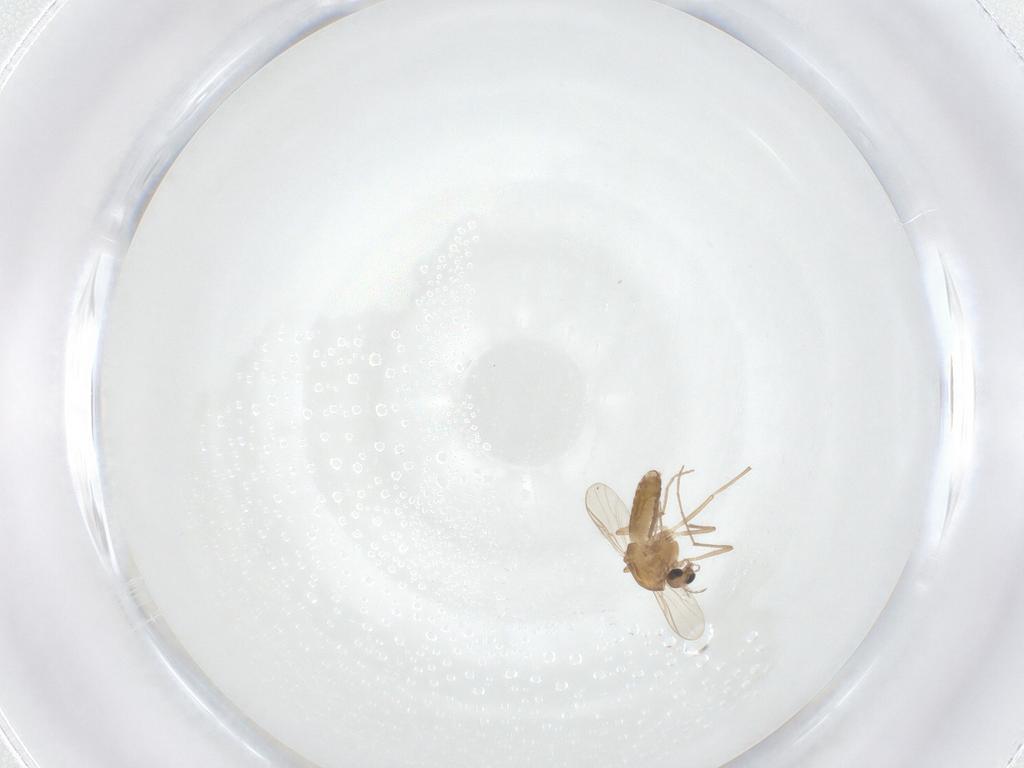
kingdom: Animalia
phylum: Arthropoda
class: Insecta
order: Diptera
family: Chironomidae
